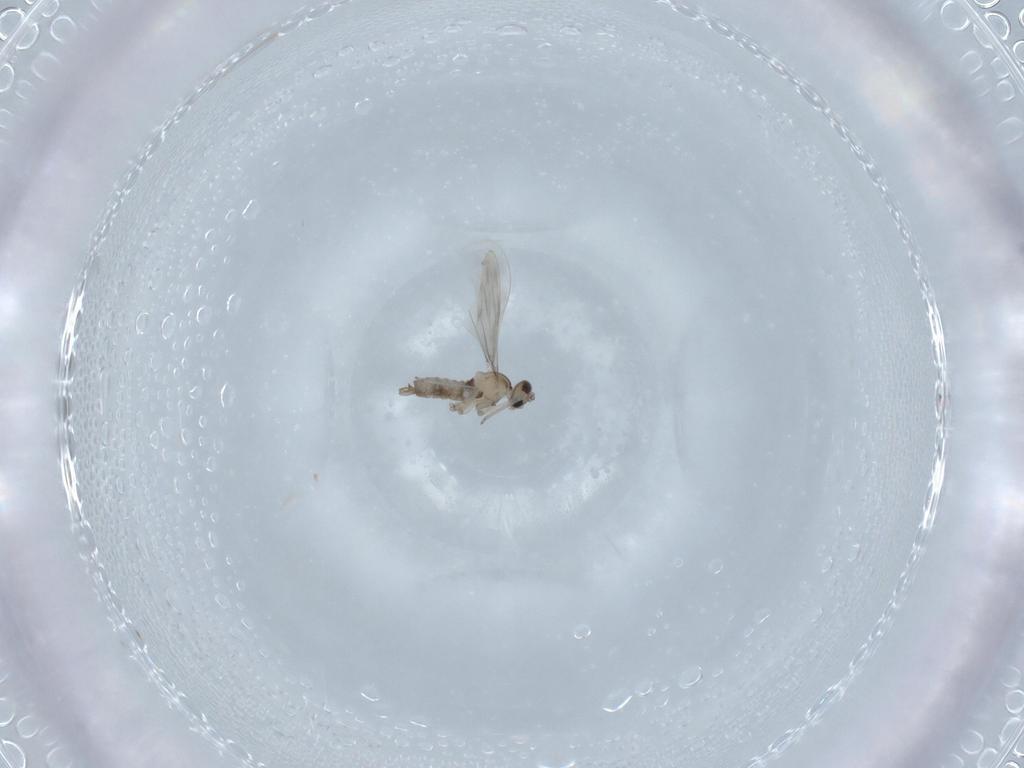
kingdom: Animalia
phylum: Arthropoda
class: Insecta
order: Diptera
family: Cecidomyiidae
